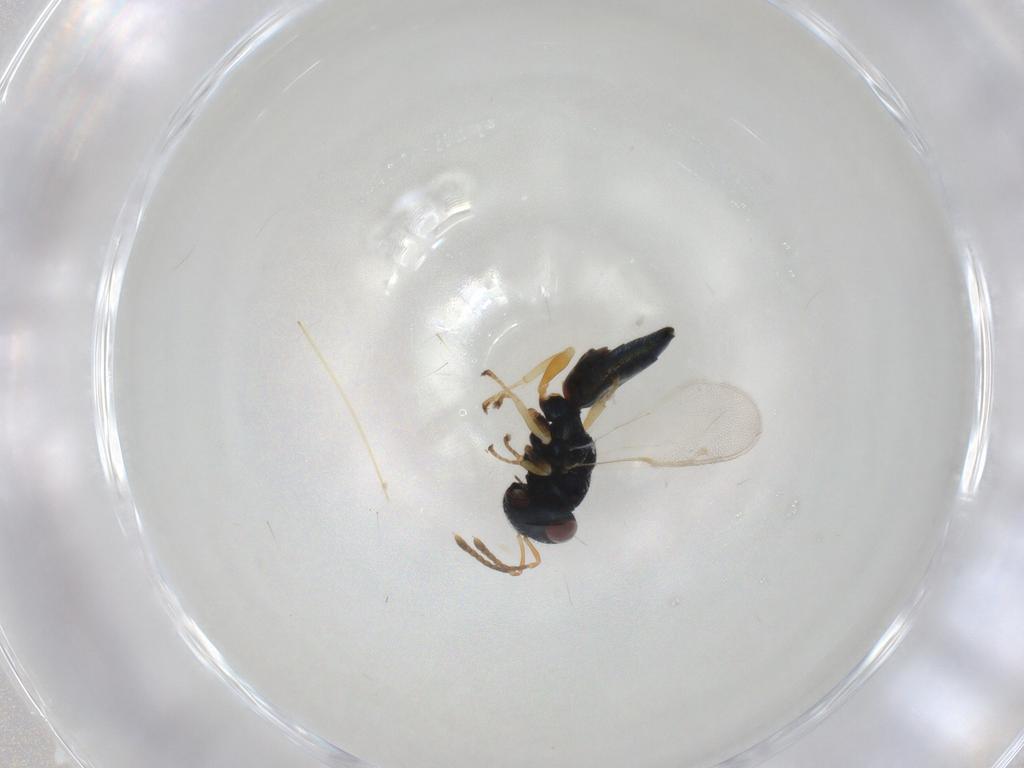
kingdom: Animalia
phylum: Arthropoda
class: Insecta
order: Hymenoptera
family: Pteromalidae
